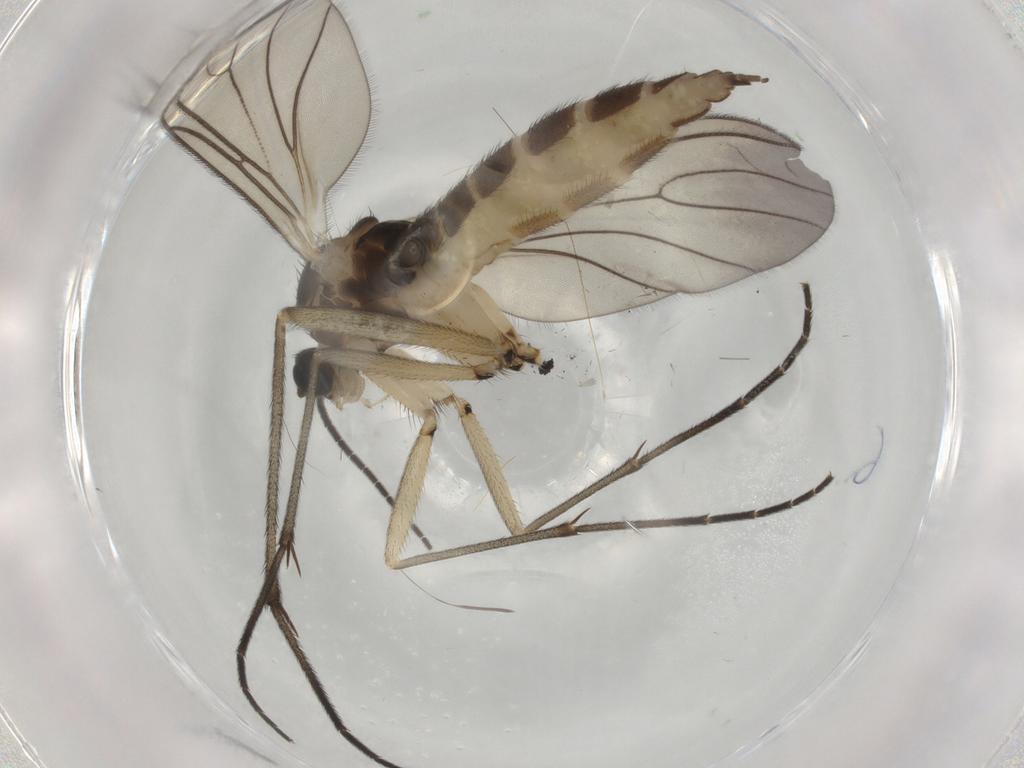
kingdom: Animalia
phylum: Arthropoda
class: Insecta
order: Diptera
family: Sciaridae
